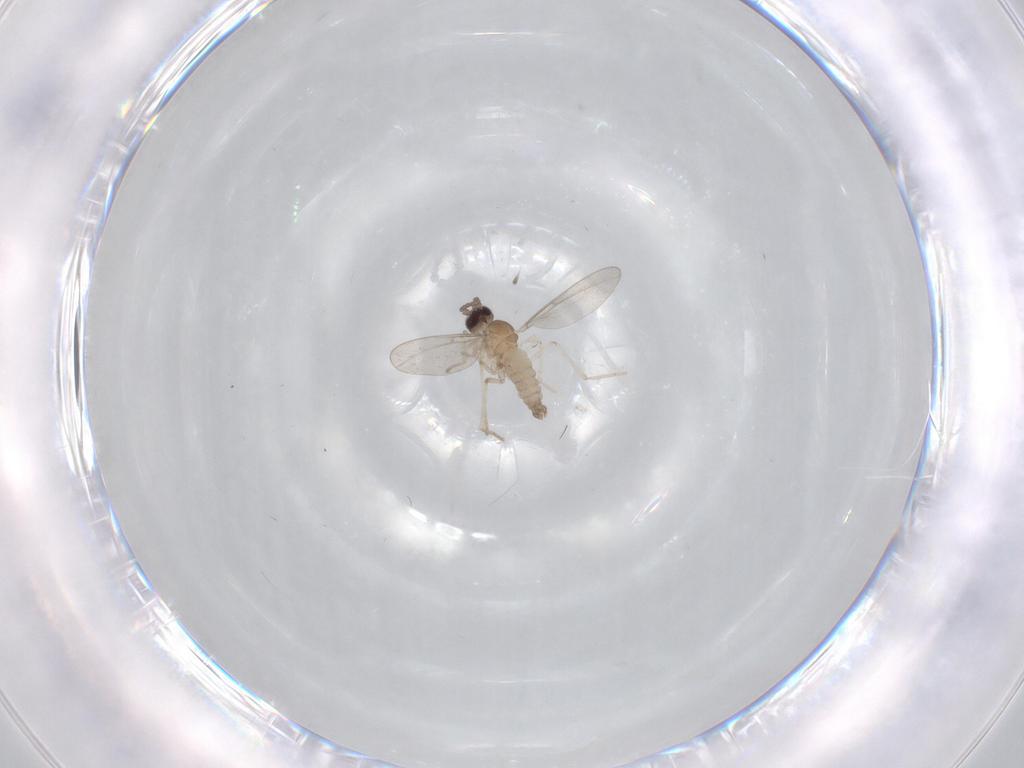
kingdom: Animalia
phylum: Arthropoda
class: Insecta
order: Diptera
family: Cecidomyiidae
